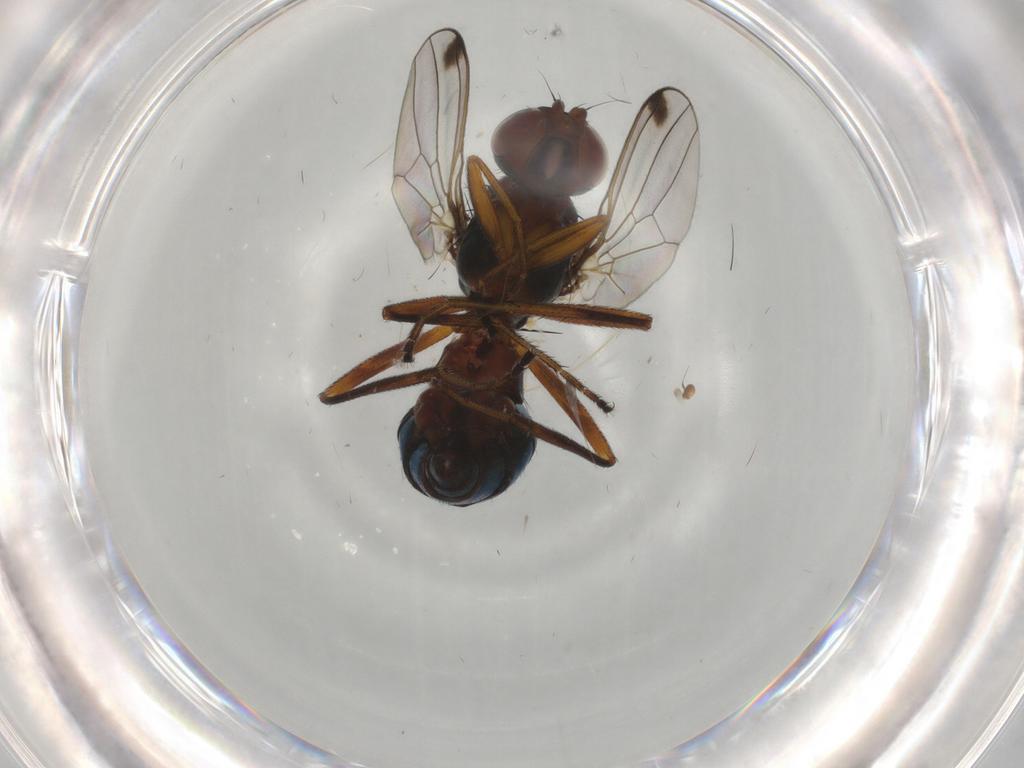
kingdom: Animalia
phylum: Arthropoda
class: Insecta
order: Diptera
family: Sepsidae
